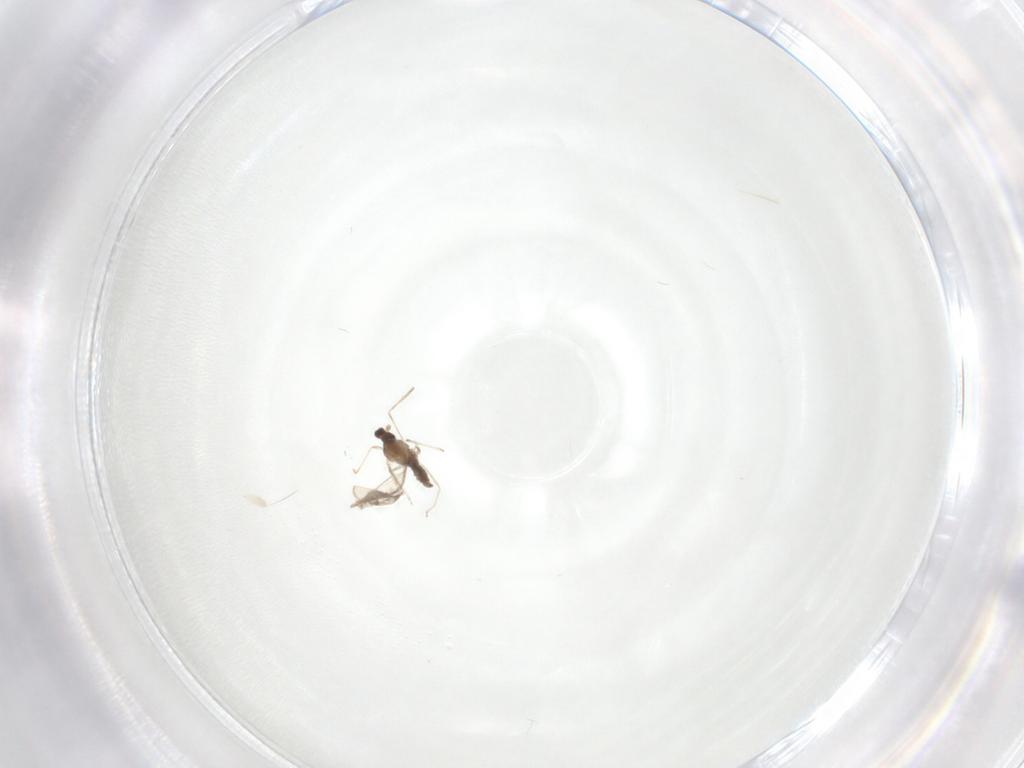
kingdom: Animalia
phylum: Arthropoda
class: Insecta
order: Diptera
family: Cecidomyiidae
